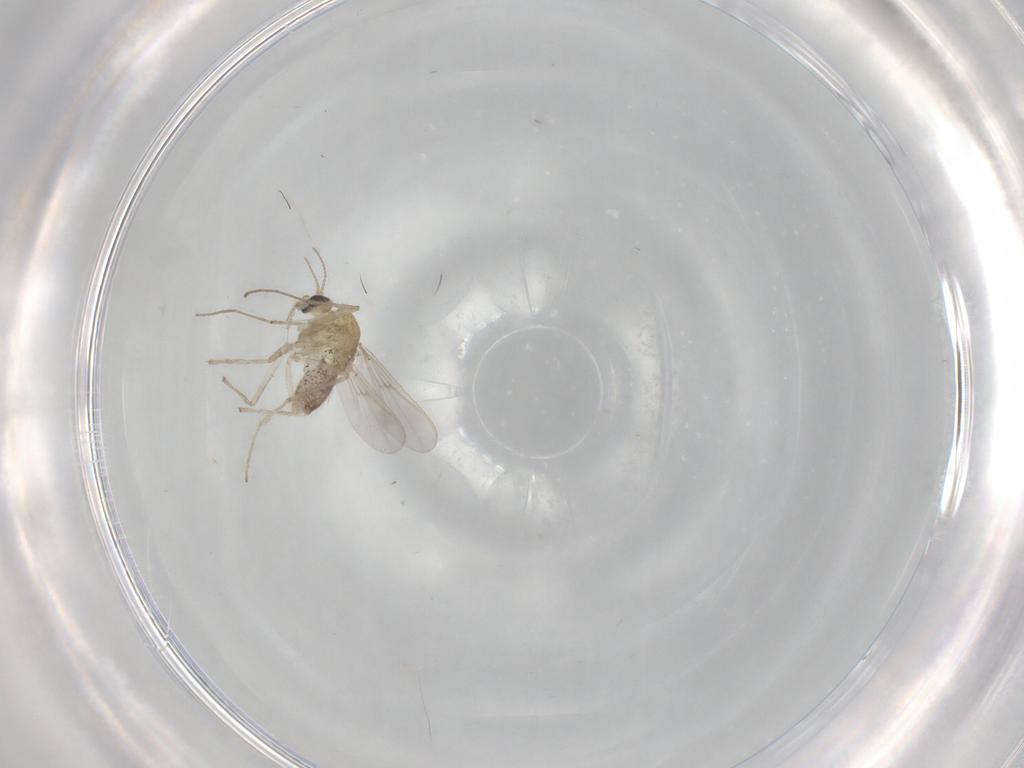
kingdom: Animalia
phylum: Arthropoda
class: Insecta
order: Diptera
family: Chironomidae
